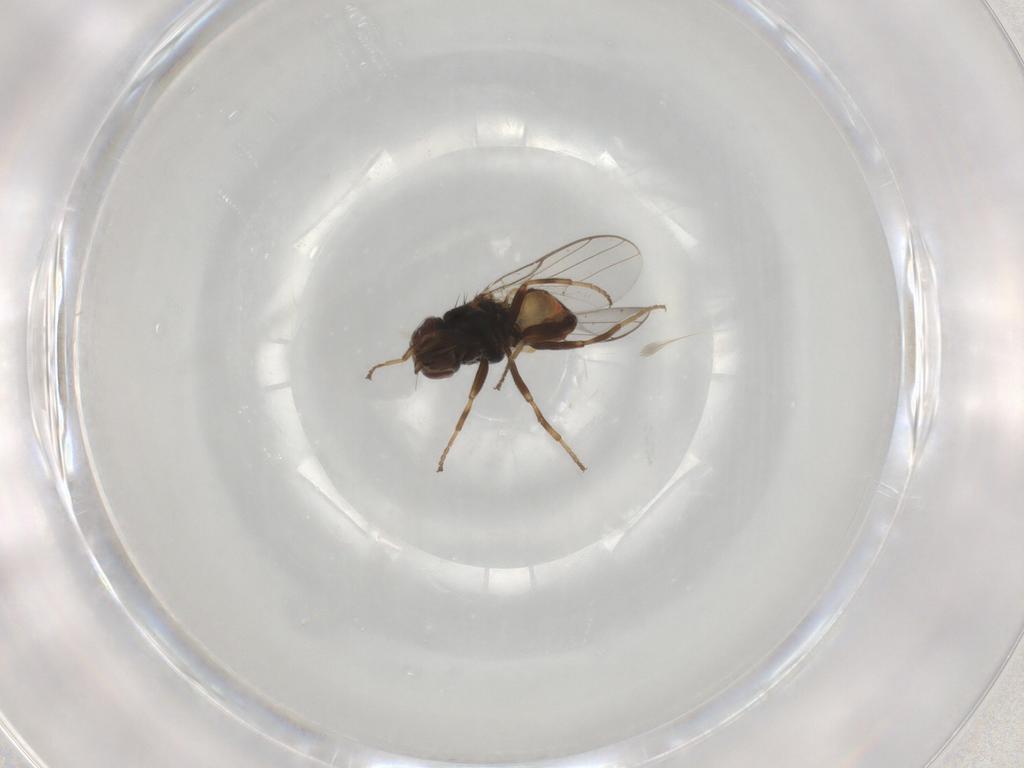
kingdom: Animalia
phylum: Arthropoda
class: Insecta
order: Diptera
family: Chloropidae
